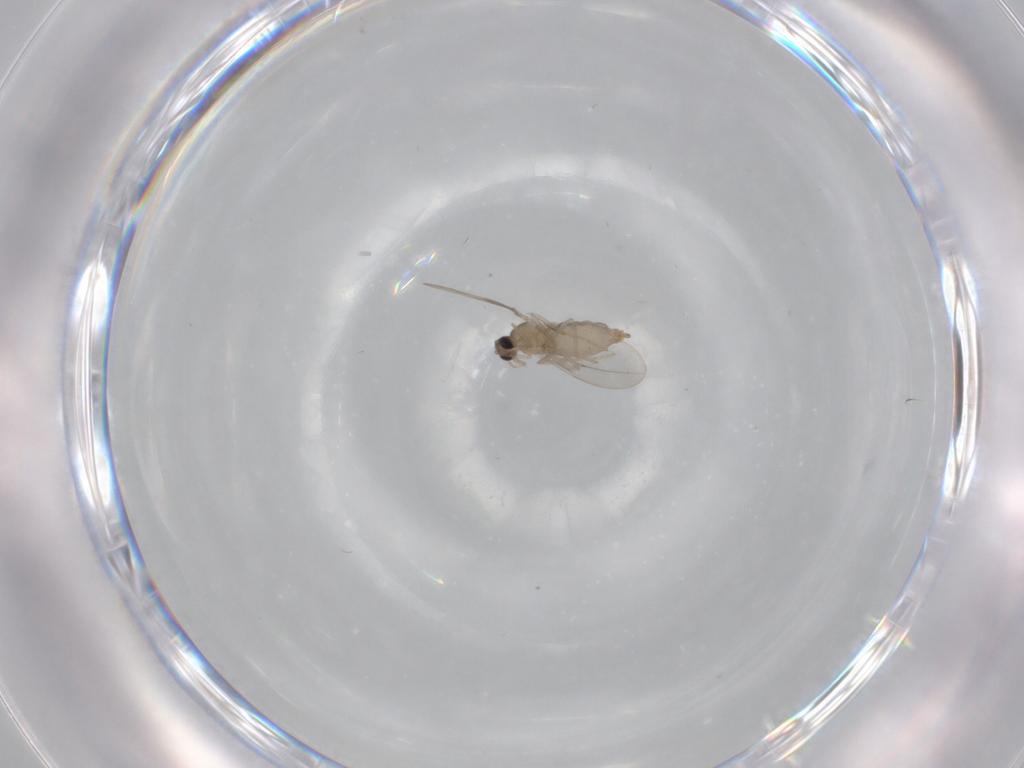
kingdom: Animalia
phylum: Arthropoda
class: Insecta
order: Diptera
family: Cecidomyiidae
